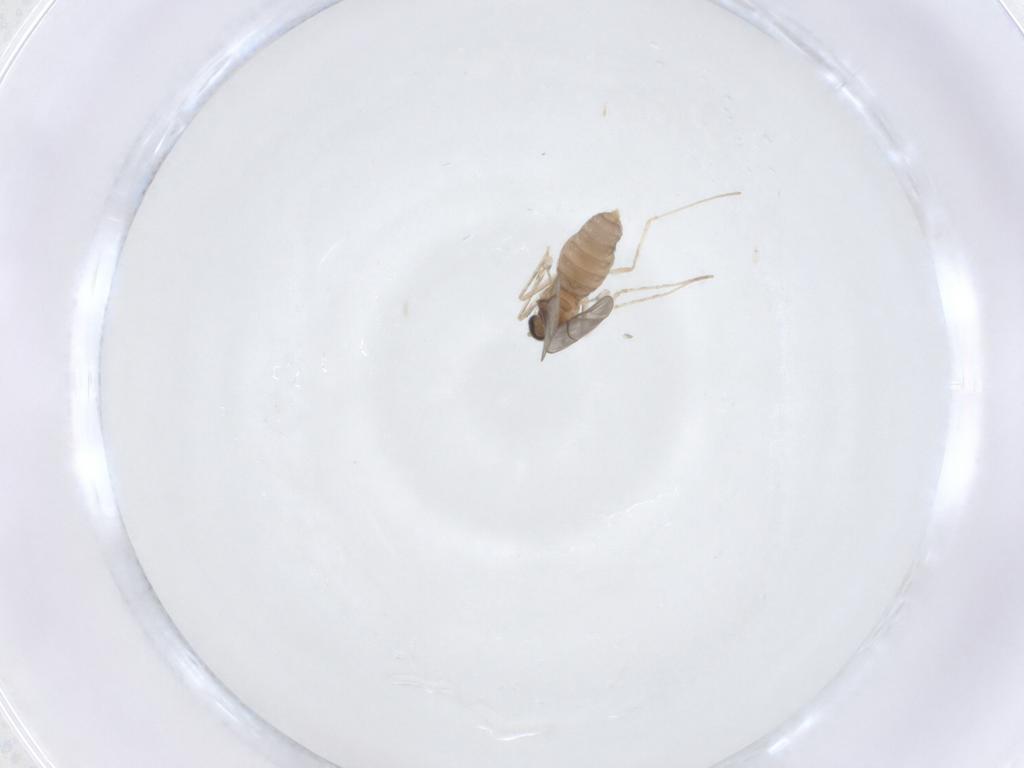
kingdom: Animalia
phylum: Arthropoda
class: Insecta
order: Diptera
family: Cecidomyiidae
